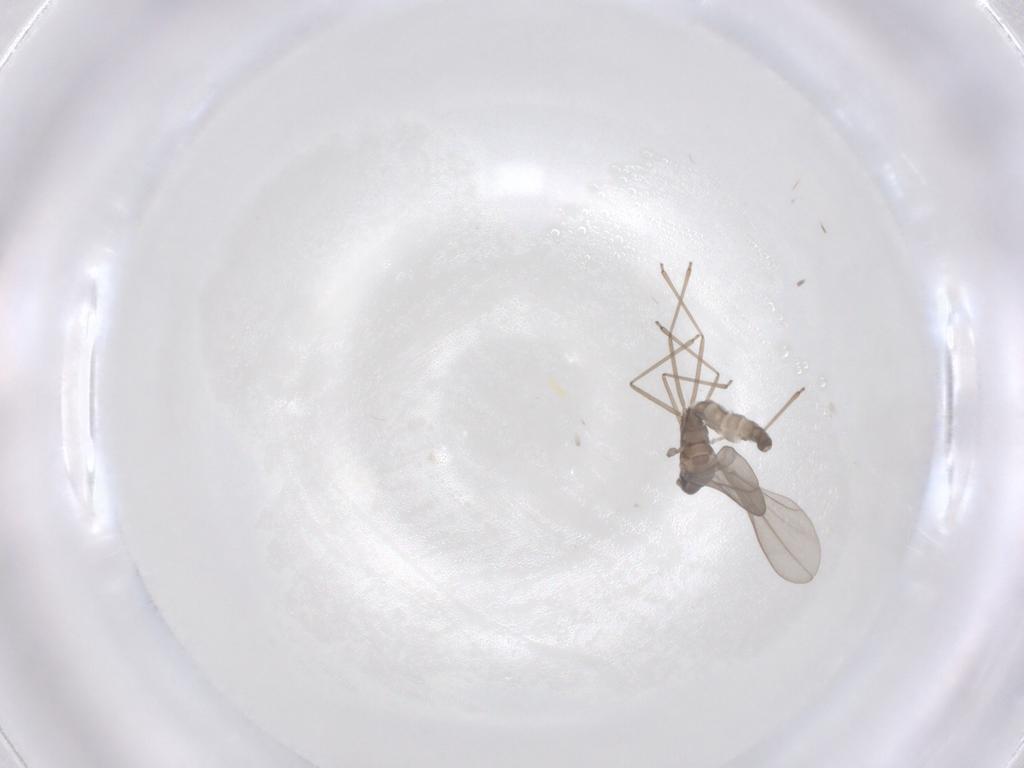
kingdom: Animalia
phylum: Arthropoda
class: Insecta
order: Diptera
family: Cecidomyiidae
